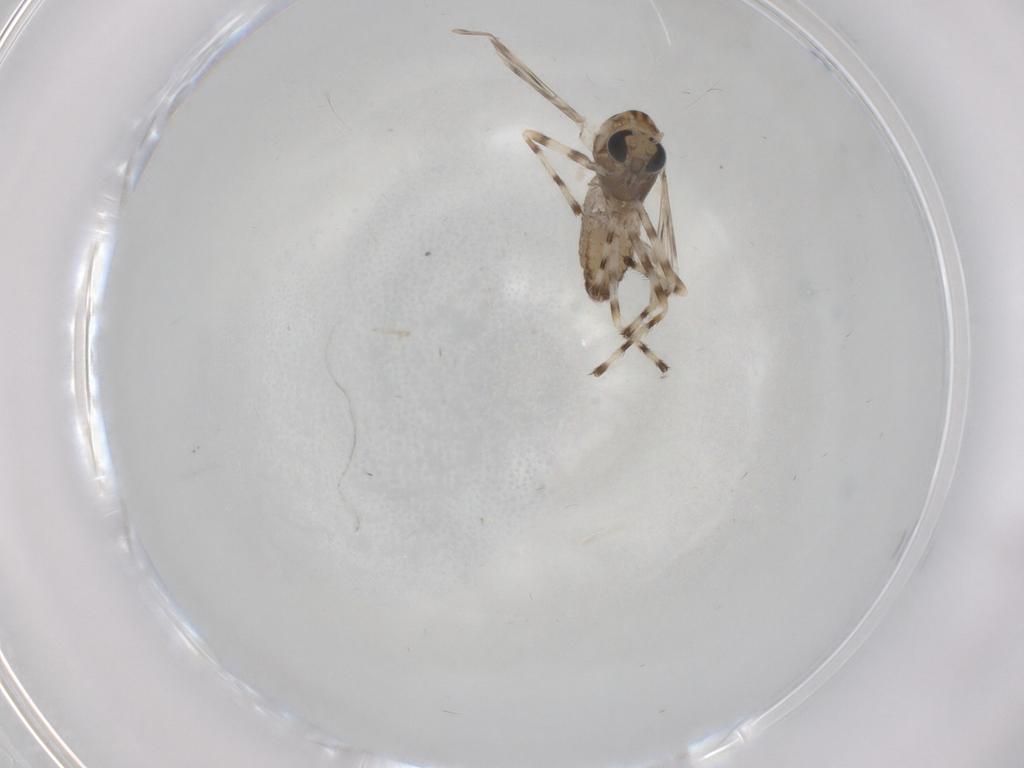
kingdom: Animalia
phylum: Arthropoda
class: Insecta
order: Diptera
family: Chironomidae
